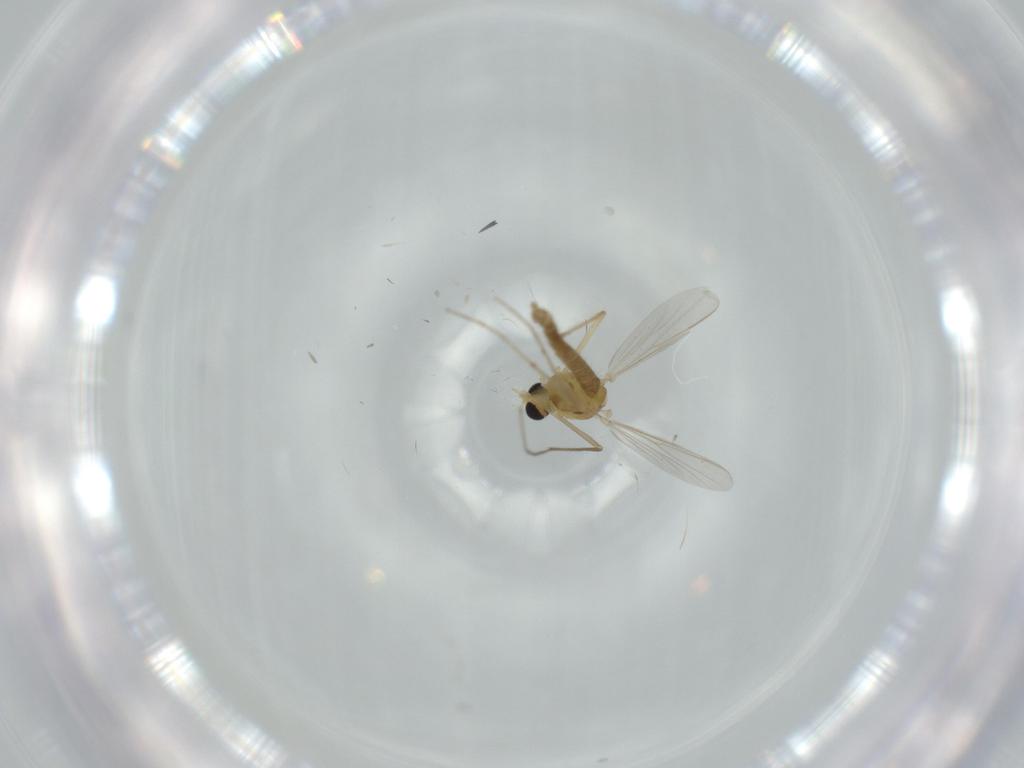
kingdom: Animalia
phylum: Arthropoda
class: Insecta
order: Diptera
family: Chironomidae
